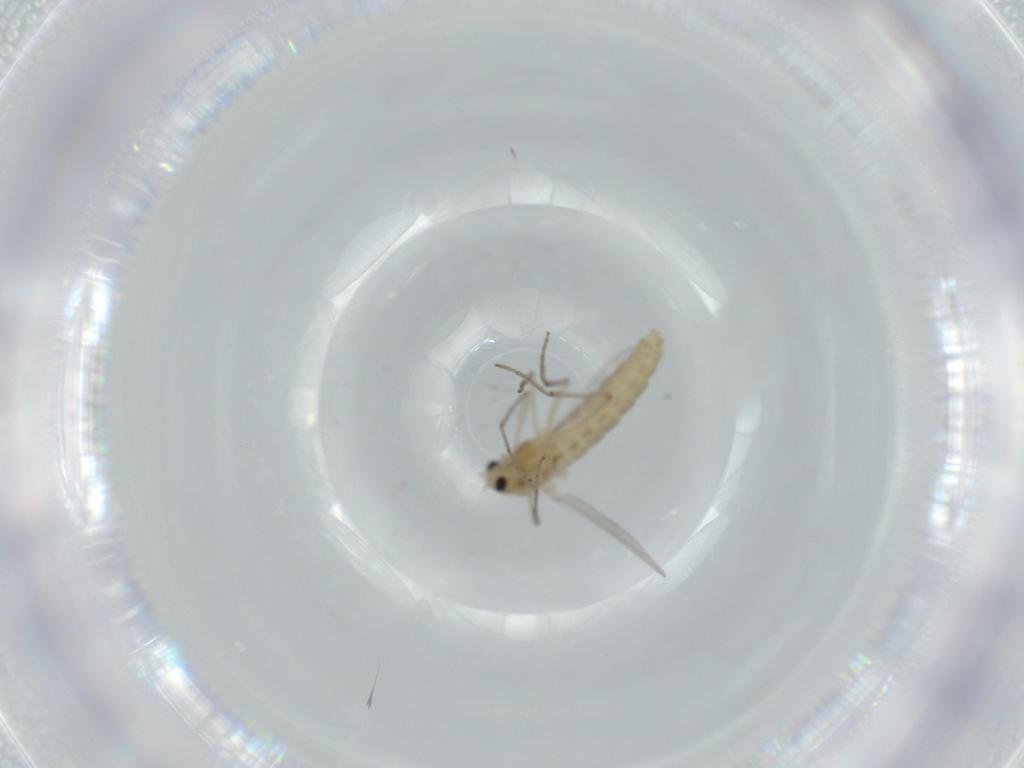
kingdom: Animalia
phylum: Arthropoda
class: Insecta
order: Diptera
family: Chironomidae
